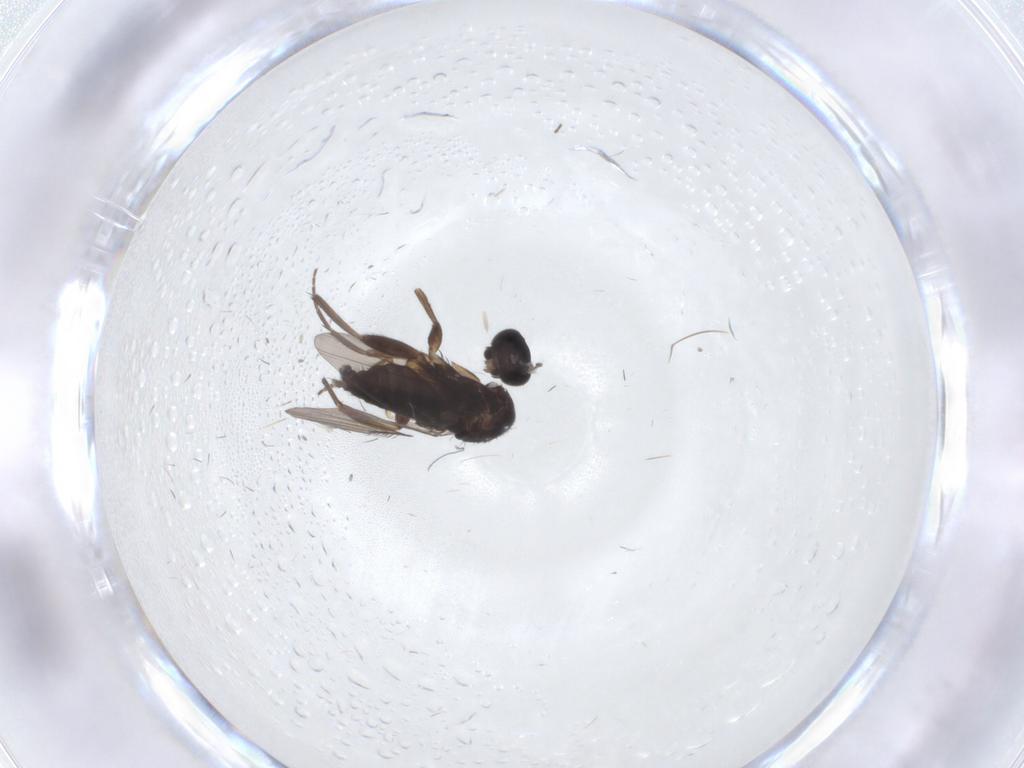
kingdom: Animalia
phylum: Arthropoda
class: Insecta
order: Diptera
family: Phoridae
